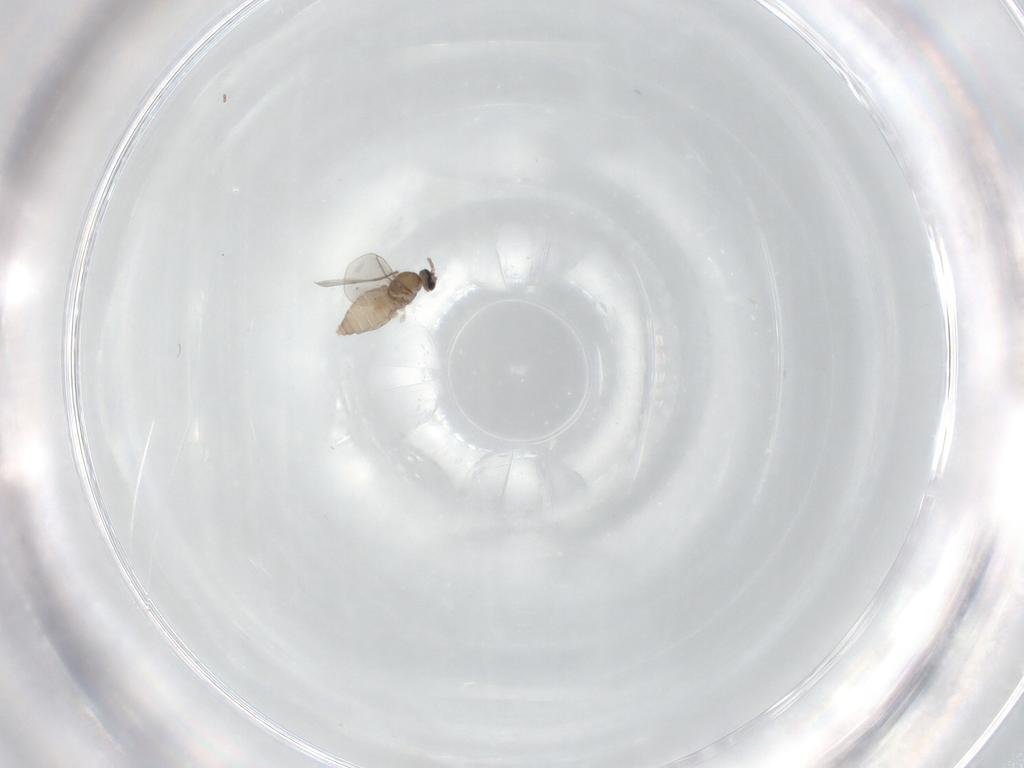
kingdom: Animalia
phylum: Arthropoda
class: Insecta
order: Diptera
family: Cecidomyiidae
